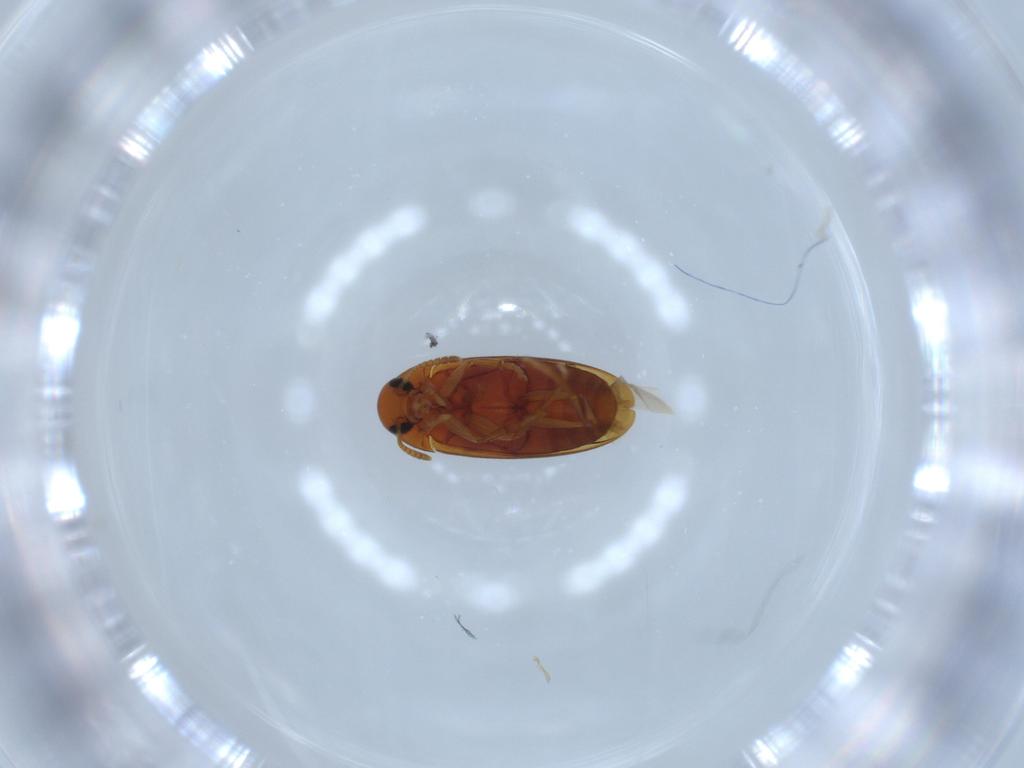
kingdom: Animalia
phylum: Arthropoda
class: Insecta
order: Coleoptera
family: Scraptiidae
